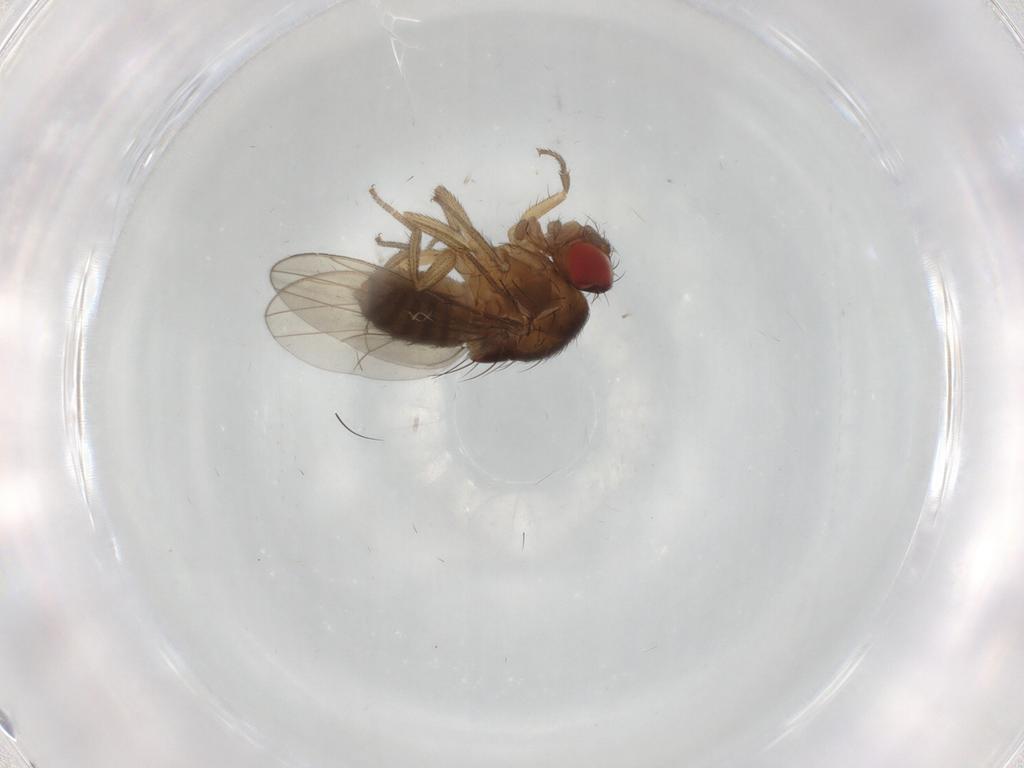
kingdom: Animalia
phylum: Arthropoda
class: Insecta
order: Diptera
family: Drosophilidae
